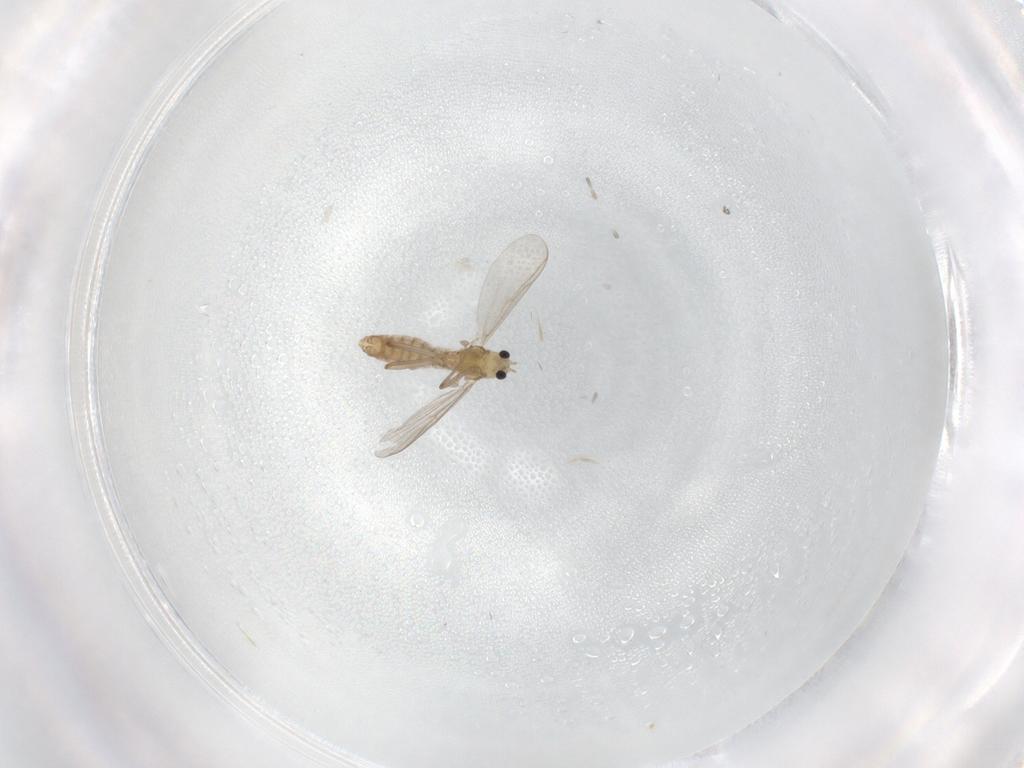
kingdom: Animalia
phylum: Arthropoda
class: Insecta
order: Diptera
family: Chironomidae
